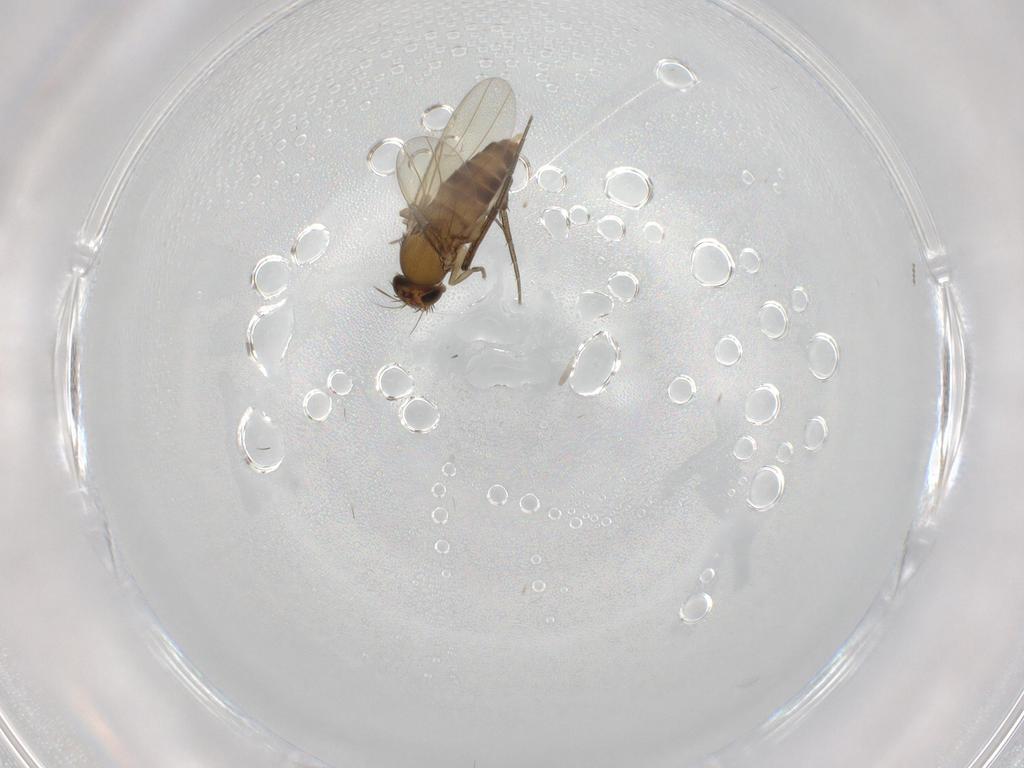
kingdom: Animalia
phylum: Arthropoda
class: Insecta
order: Diptera
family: Phoridae
